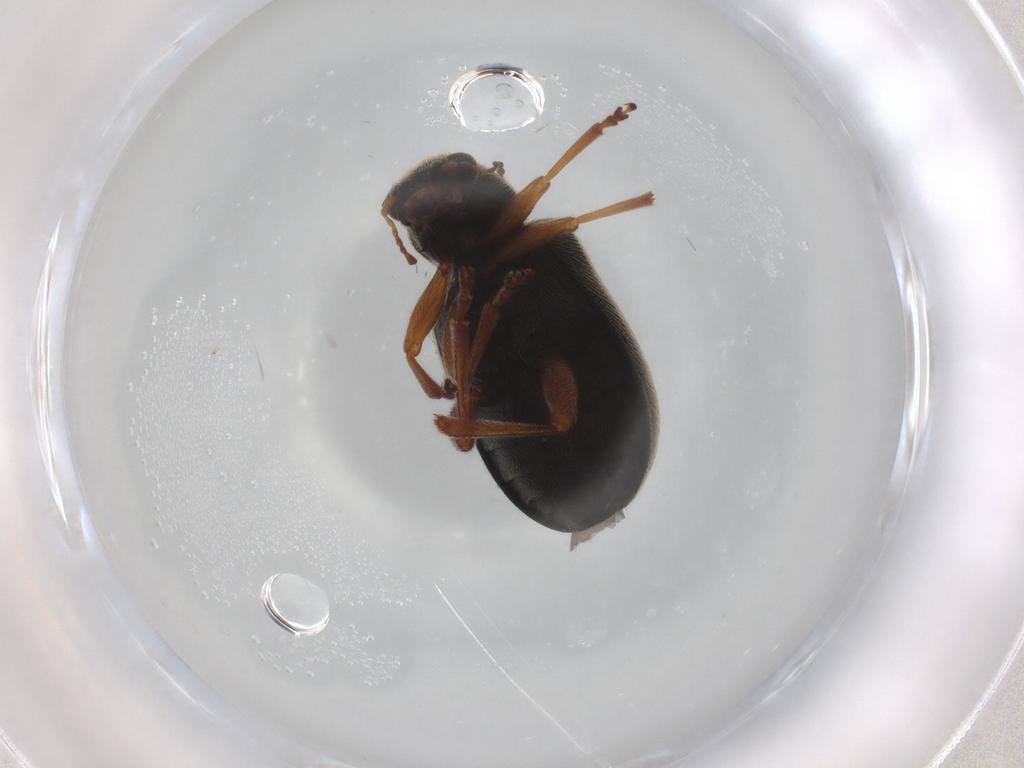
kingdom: Animalia
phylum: Arthropoda
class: Insecta
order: Coleoptera
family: Chrysomelidae
